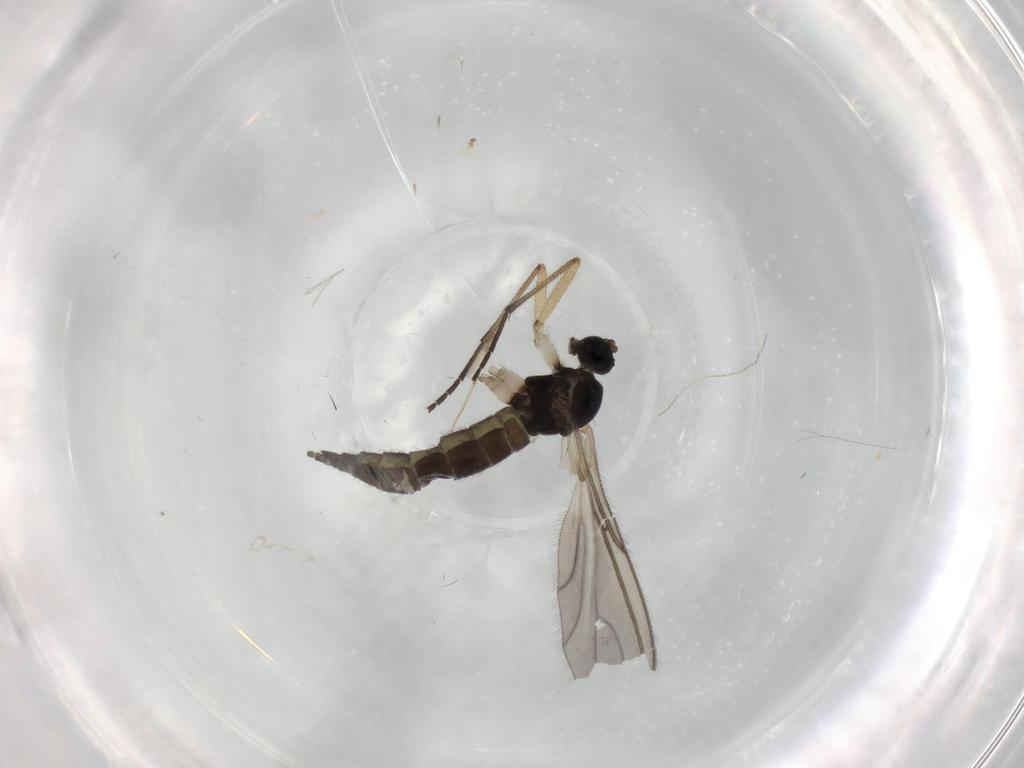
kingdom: Animalia
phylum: Arthropoda
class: Insecta
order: Diptera
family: Sciaridae
